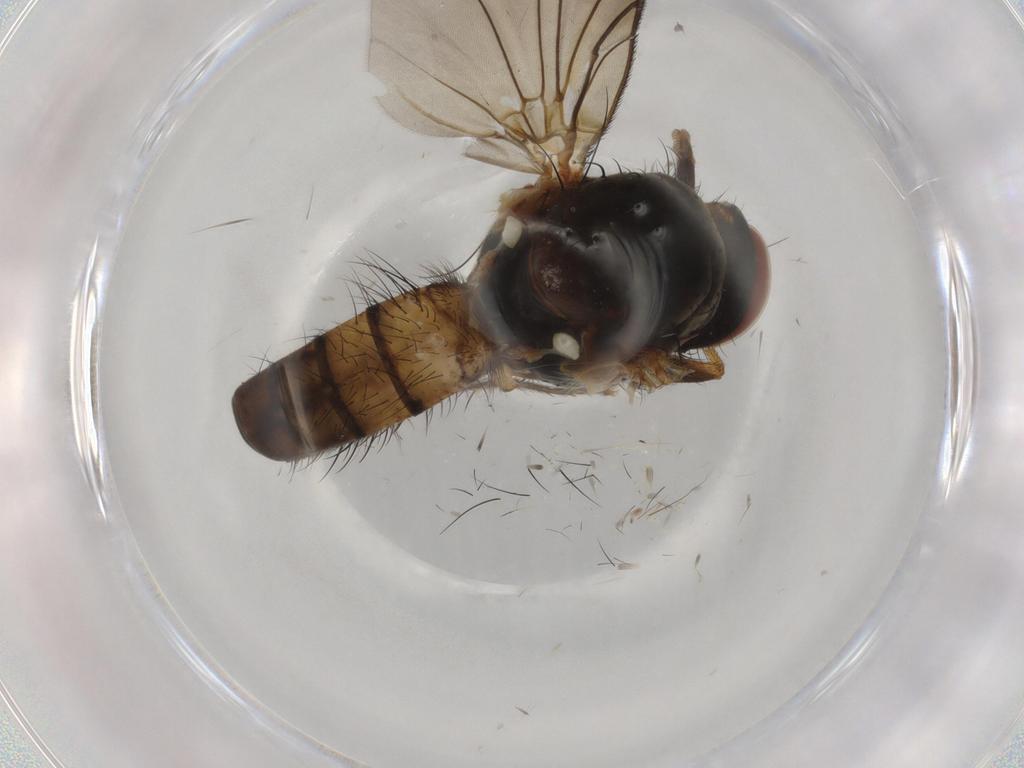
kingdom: Animalia
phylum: Arthropoda
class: Insecta
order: Diptera
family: Anthomyiidae
